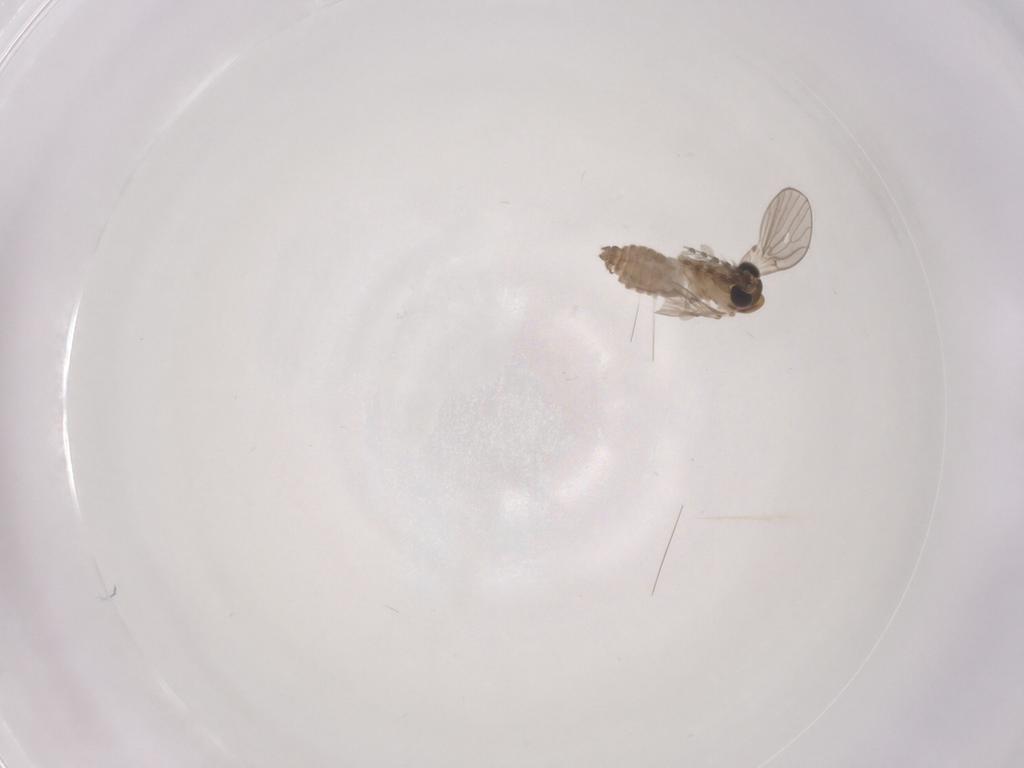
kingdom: Animalia
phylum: Arthropoda
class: Insecta
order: Diptera
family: Psychodidae
